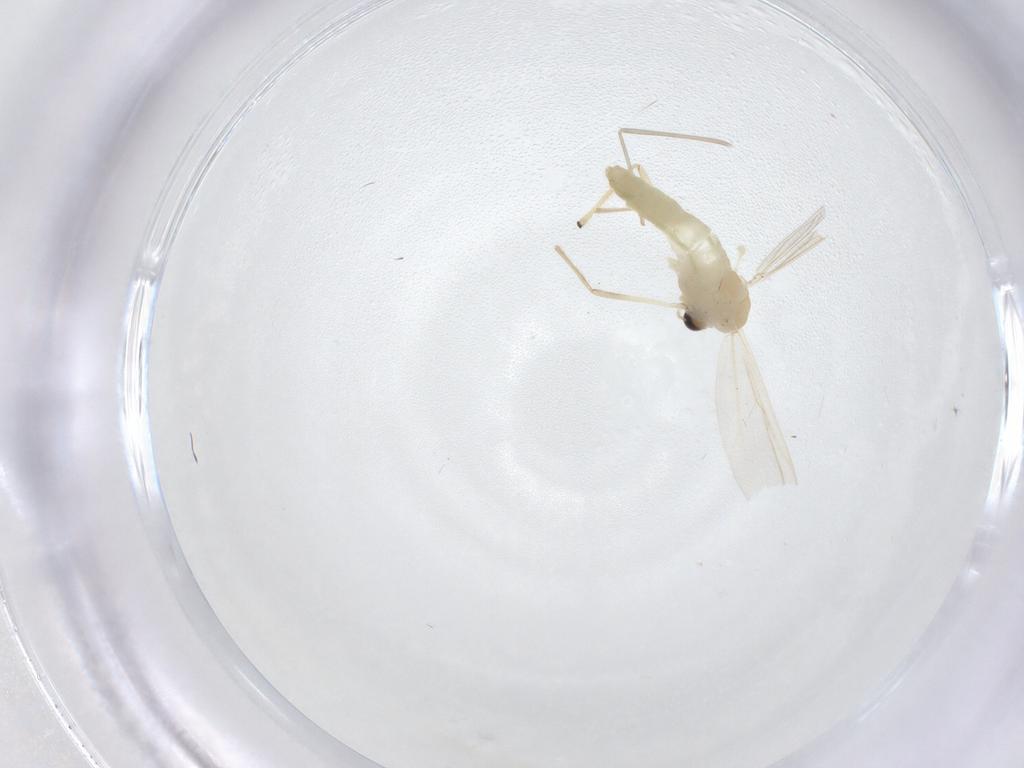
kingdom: Animalia
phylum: Arthropoda
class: Insecta
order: Diptera
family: Chironomidae
